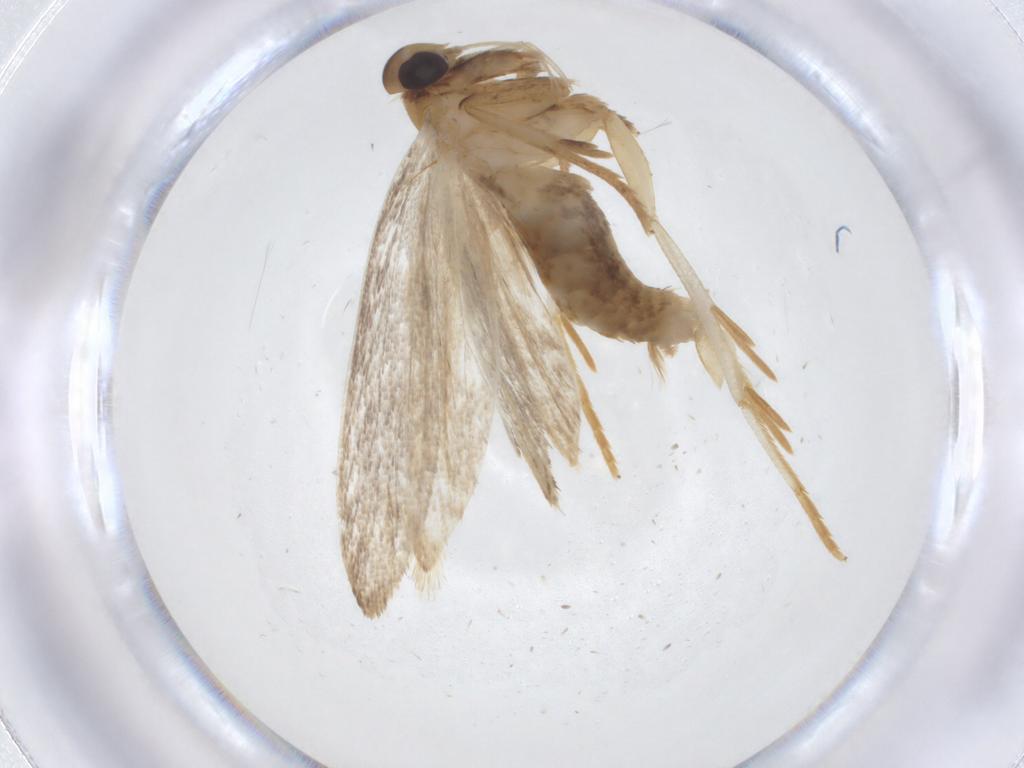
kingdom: Animalia
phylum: Arthropoda
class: Insecta
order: Lepidoptera
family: Oecophoridae
